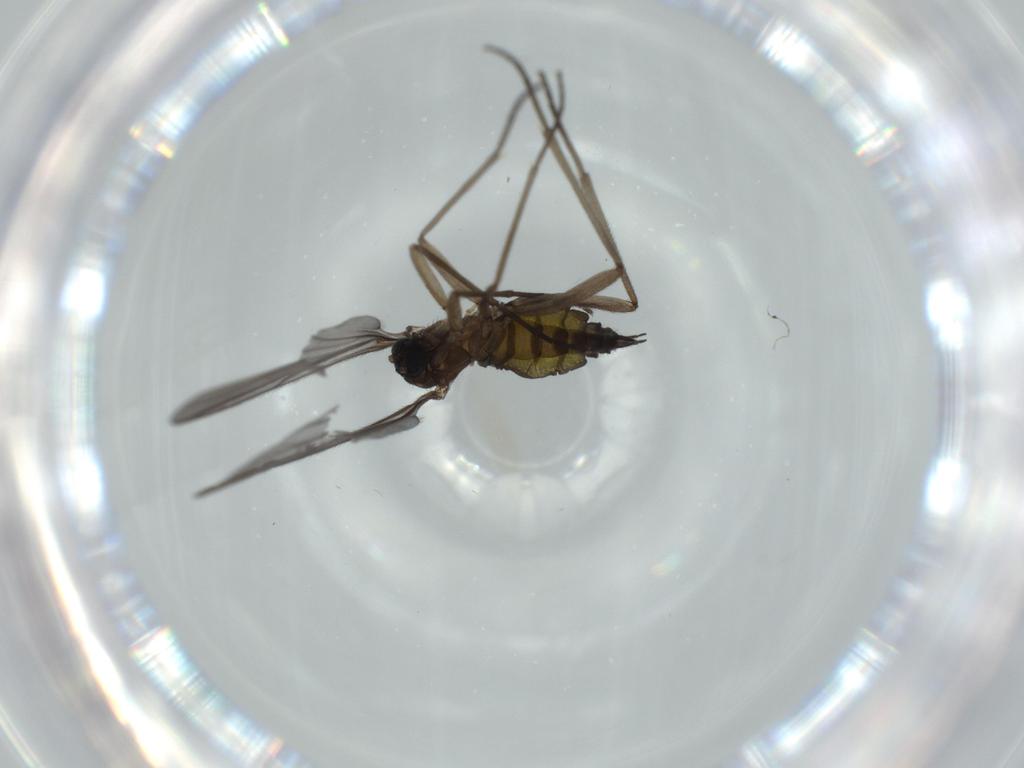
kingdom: Animalia
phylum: Arthropoda
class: Insecta
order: Diptera
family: Sciaridae
